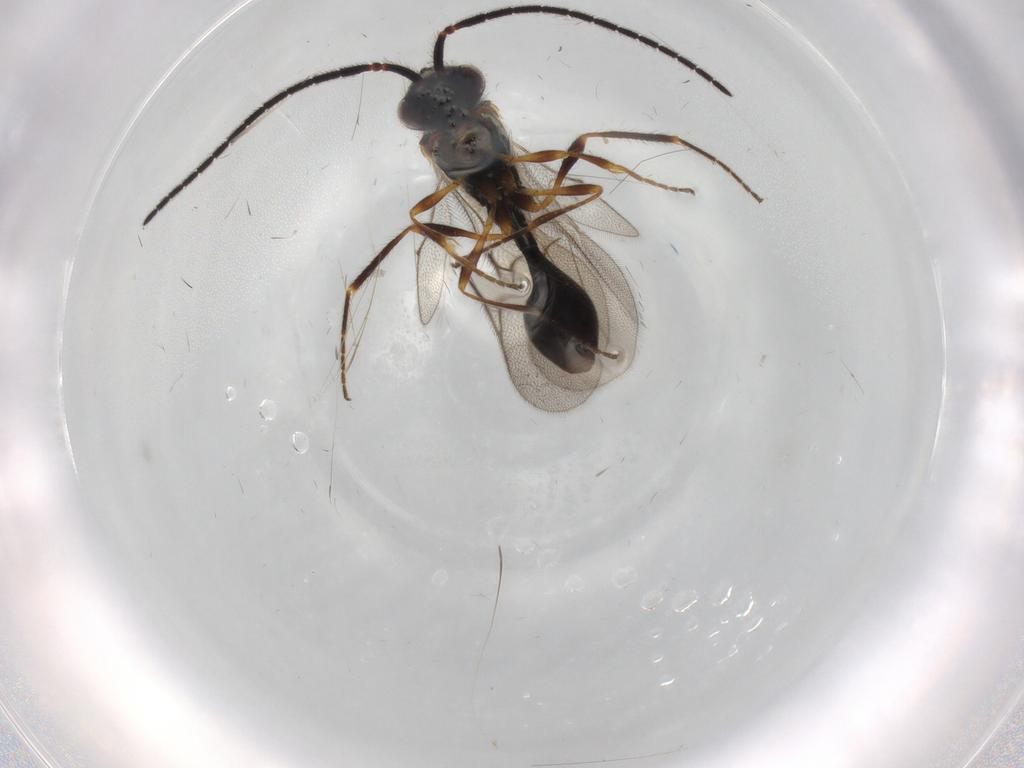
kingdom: Animalia
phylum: Arthropoda
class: Insecta
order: Hymenoptera
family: Diapriidae
